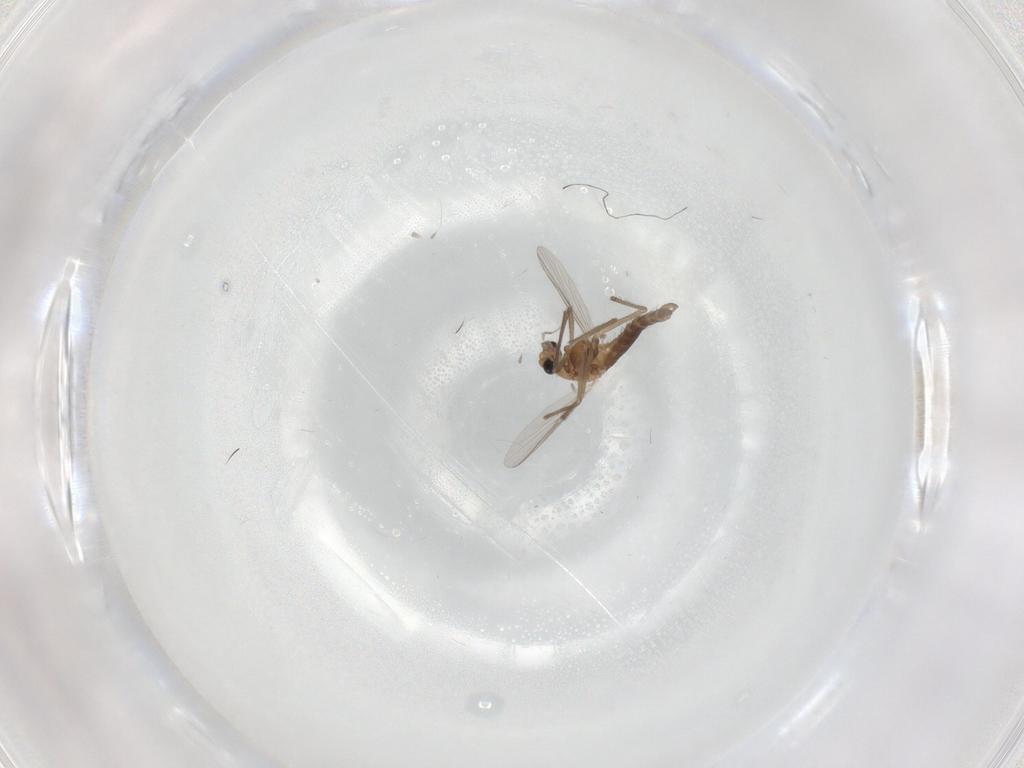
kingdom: Animalia
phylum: Arthropoda
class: Insecta
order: Diptera
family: Chironomidae
